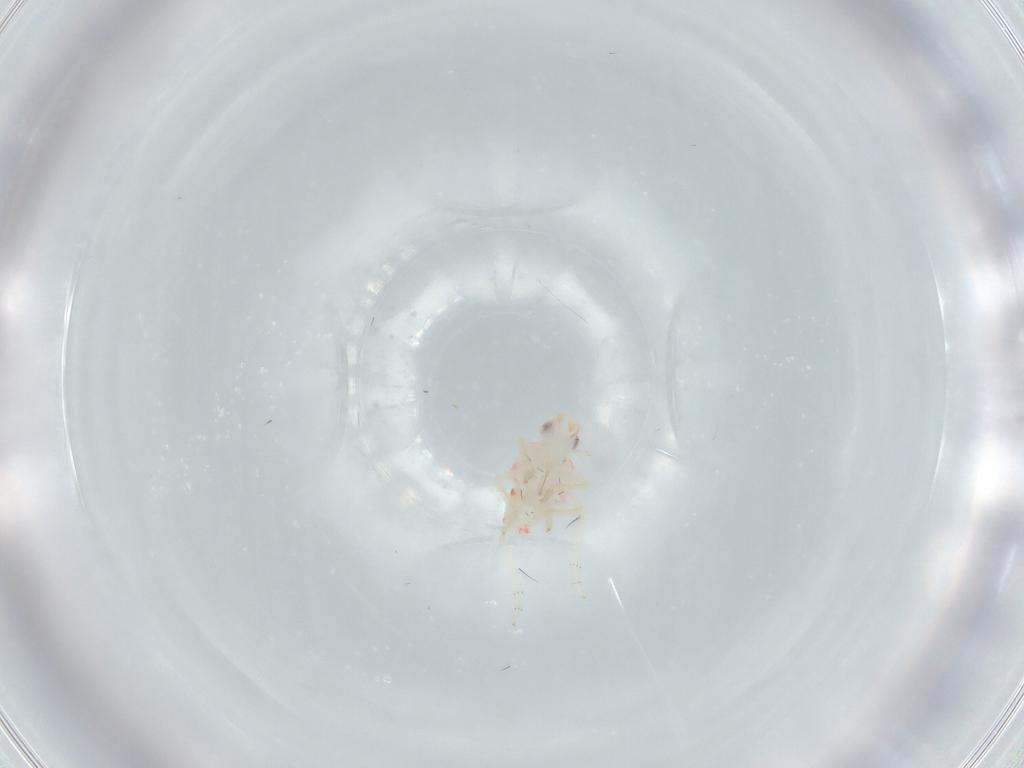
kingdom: Animalia
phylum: Arthropoda
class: Insecta
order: Hemiptera
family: Tropiduchidae
